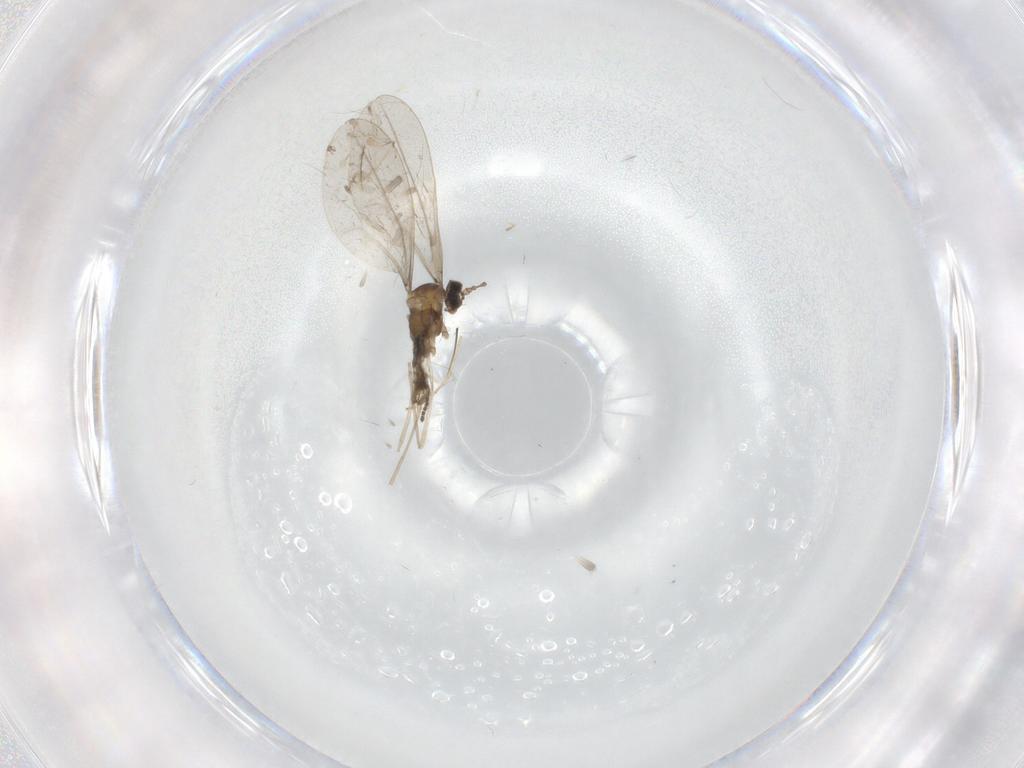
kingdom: Animalia
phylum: Arthropoda
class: Insecta
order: Diptera
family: Cecidomyiidae
